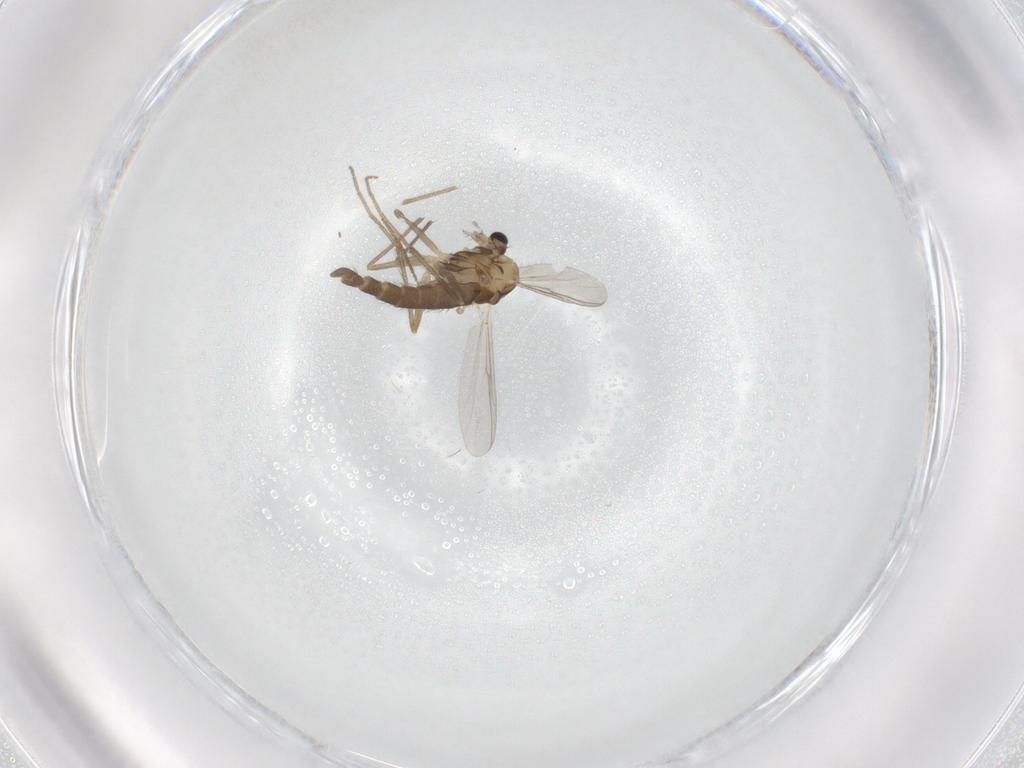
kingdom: Animalia
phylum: Arthropoda
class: Insecta
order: Diptera
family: Chironomidae
